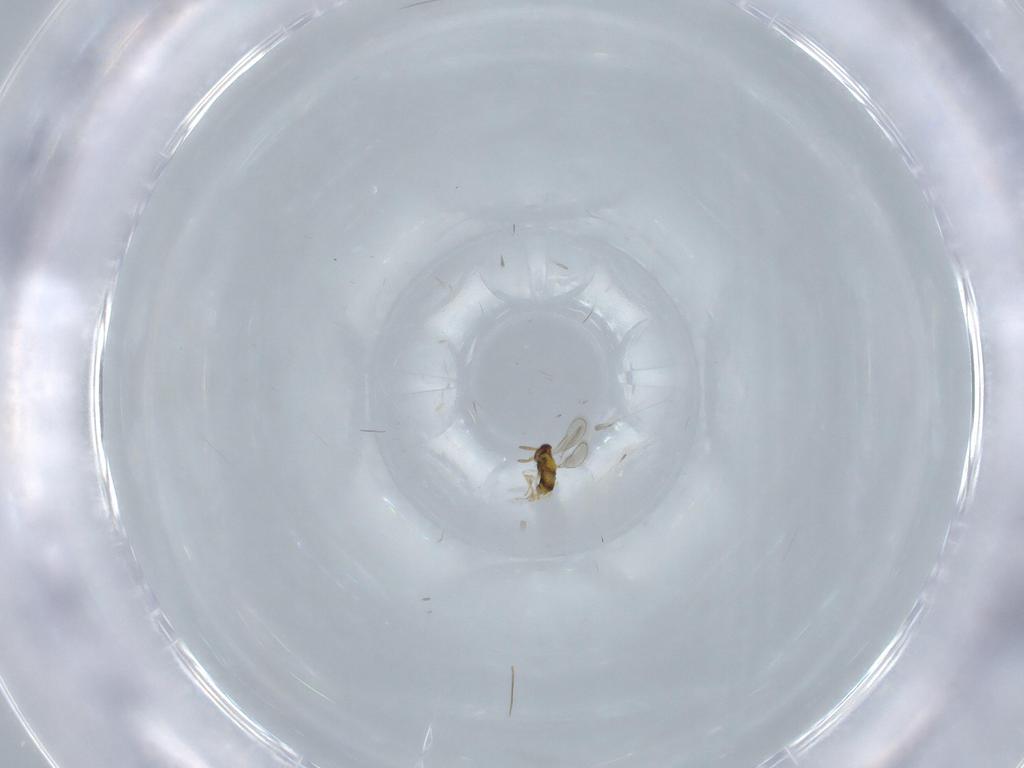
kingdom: Animalia
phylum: Arthropoda
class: Insecta
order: Hymenoptera
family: Aphelinidae
